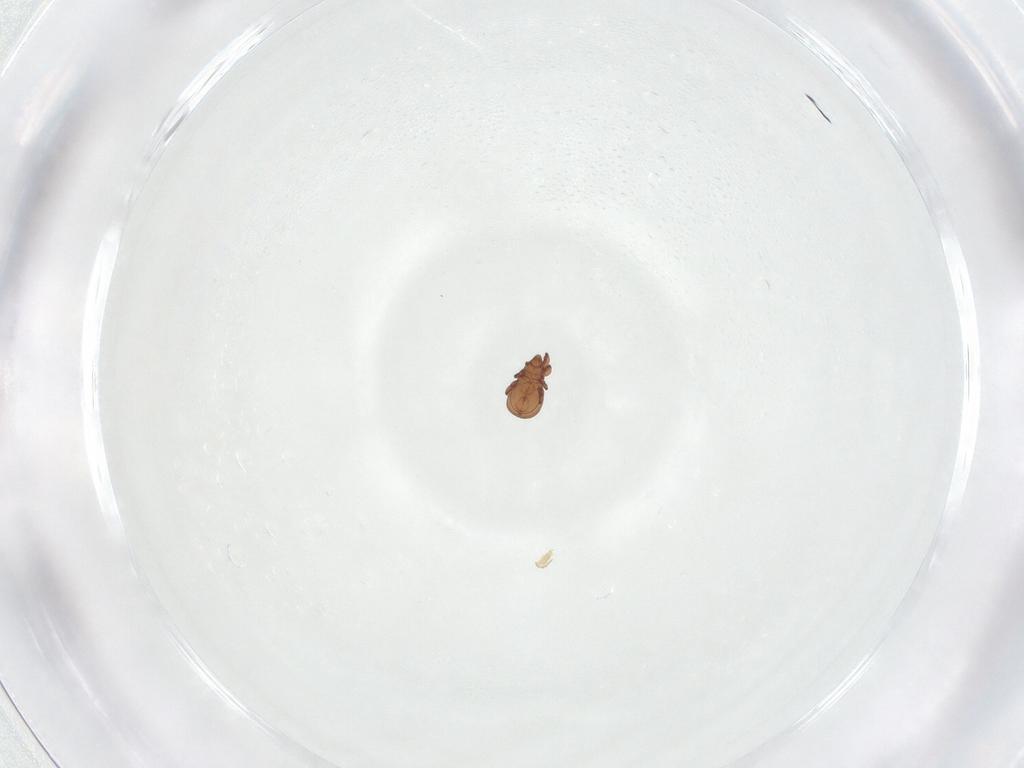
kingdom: Animalia
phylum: Arthropoda
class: Arachnida
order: Sarcoptiformes
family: Eremaeidae
